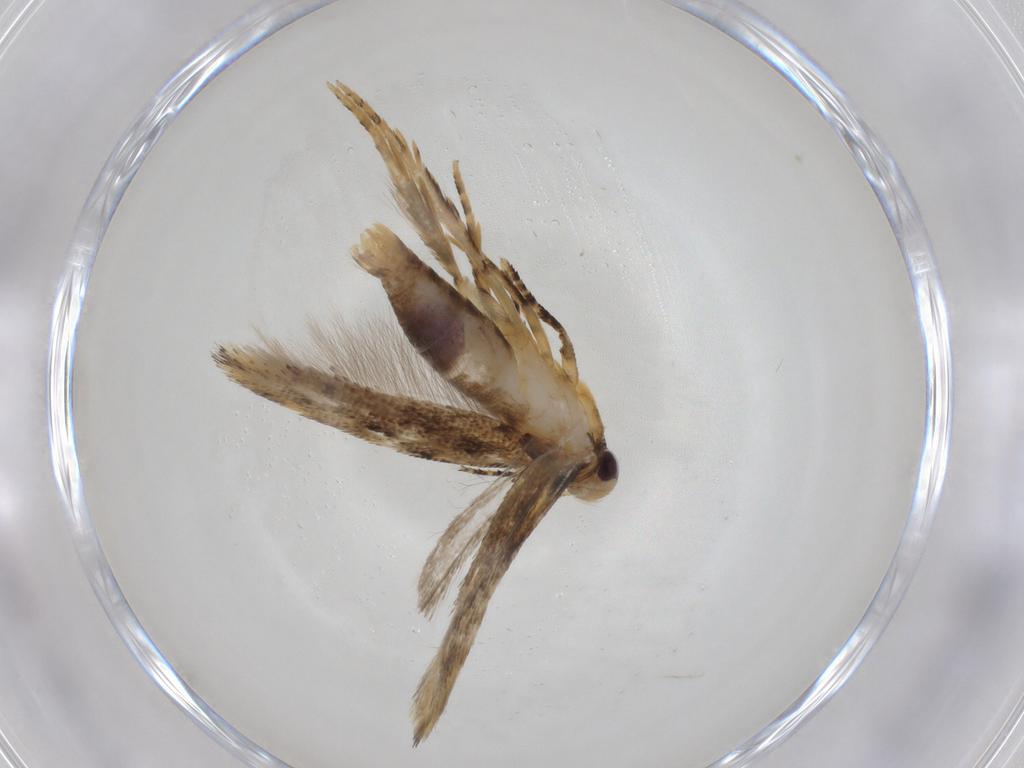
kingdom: Animalia
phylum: Arthropoda
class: Insecta
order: Lepidoptera
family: Gelechiidae
